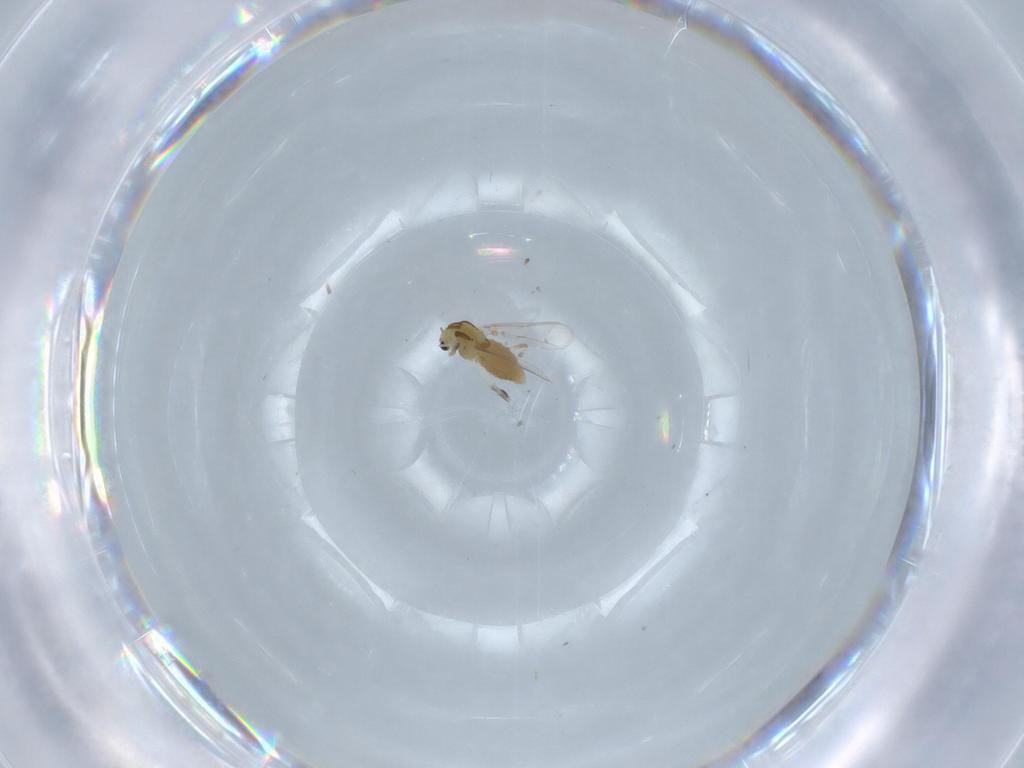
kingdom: Animalia
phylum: Arthropoda
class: Insecta
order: Diptera
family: Chironomidae
